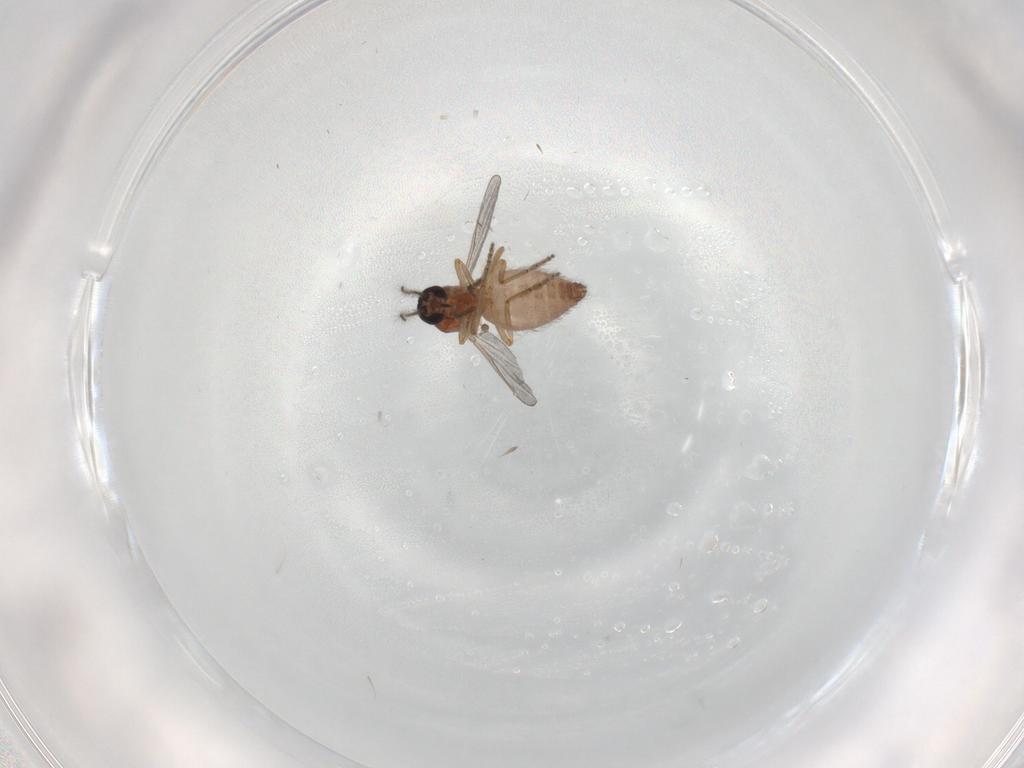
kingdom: Animalia
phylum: Arthropoda
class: Insecta
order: Diptera
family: Ceratopogonidae
